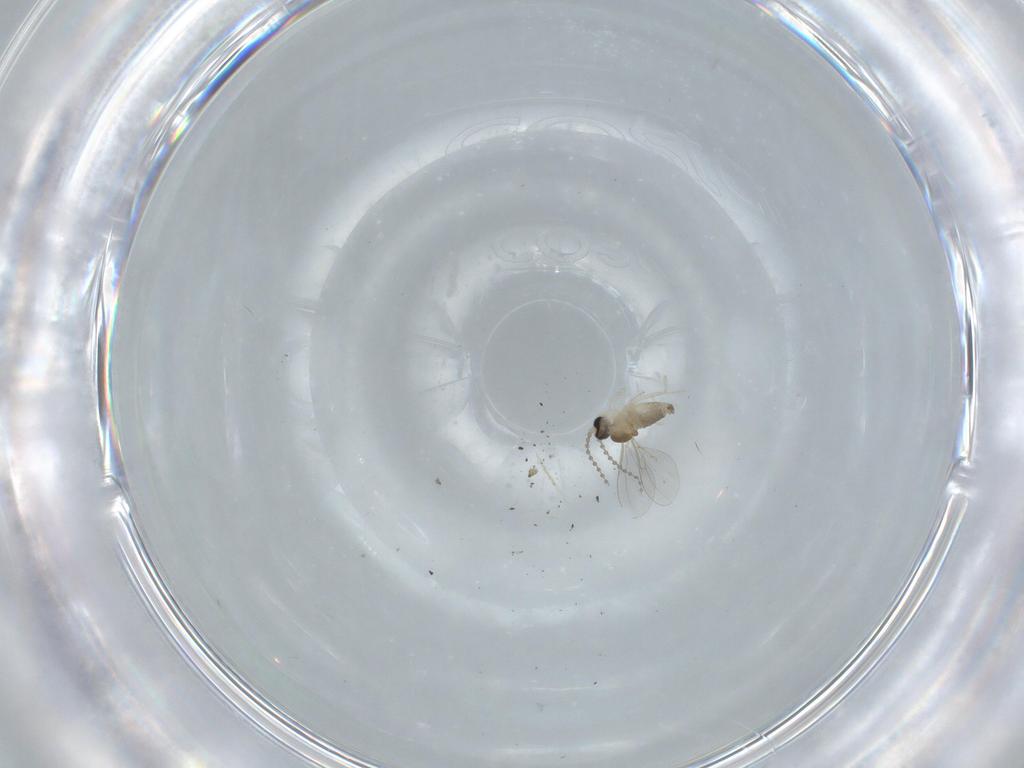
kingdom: Animalia
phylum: Arthropoda
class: Insecta
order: Diptera
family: Cecidomyiidae
